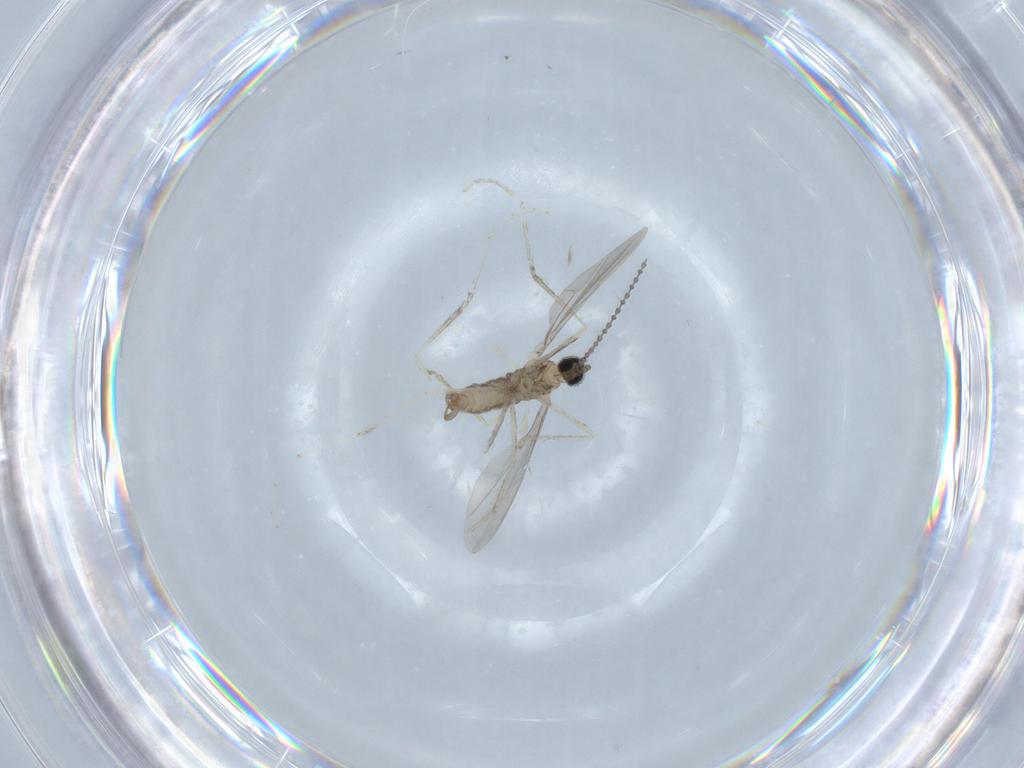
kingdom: Animalia
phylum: Arthropoda
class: Insecta
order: Diptera
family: Cecidomyiidae
